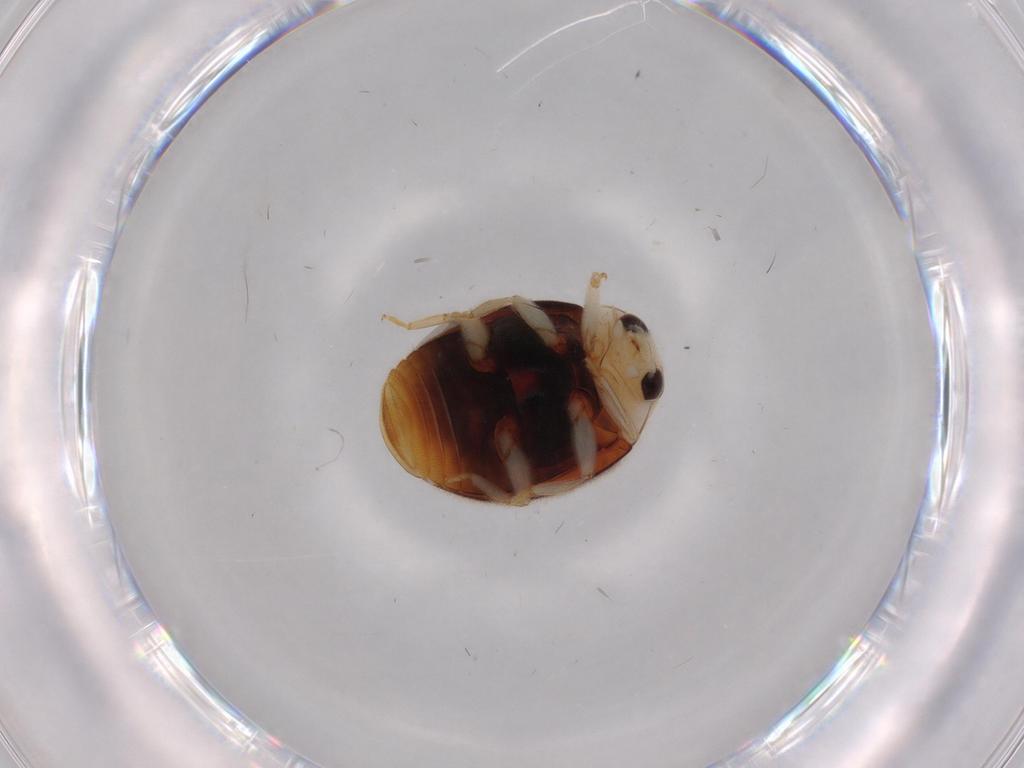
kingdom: Animalia
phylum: Arthropoda
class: Insecta
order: Coleoptera
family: Coccinellidae
